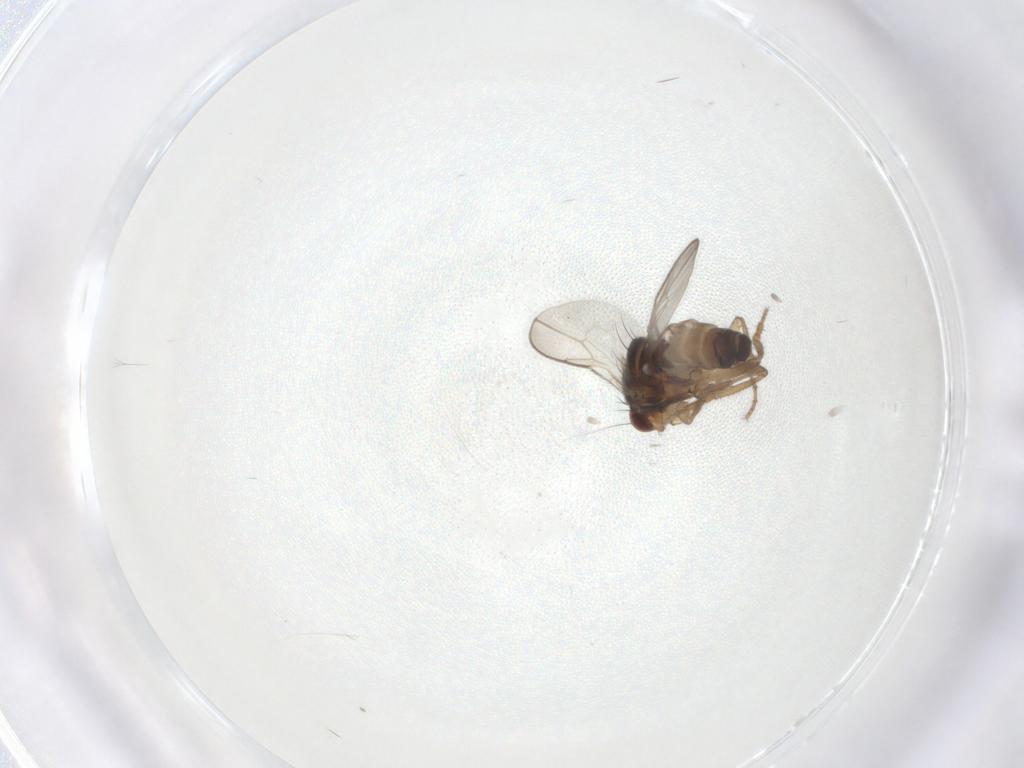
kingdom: Animalia
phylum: Arthropoda
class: Insecta
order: Diptera
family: Sphaeroceridae
